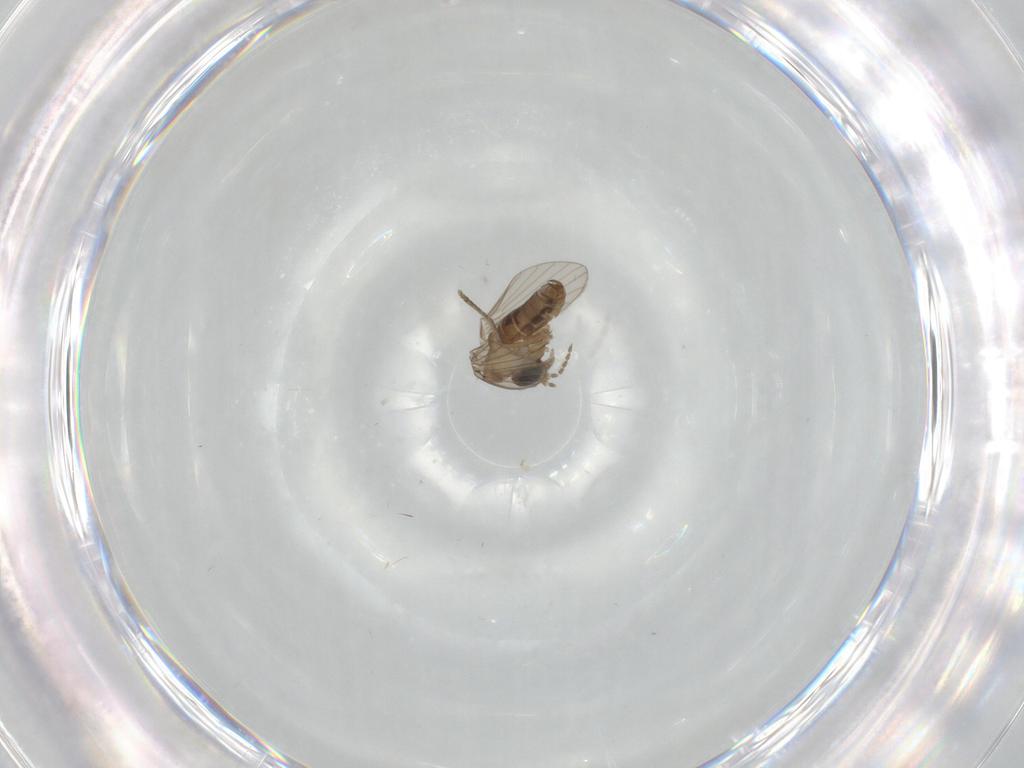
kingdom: Animalia
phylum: Arthropoda
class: Insecta
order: Diptera
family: Psychodidae
